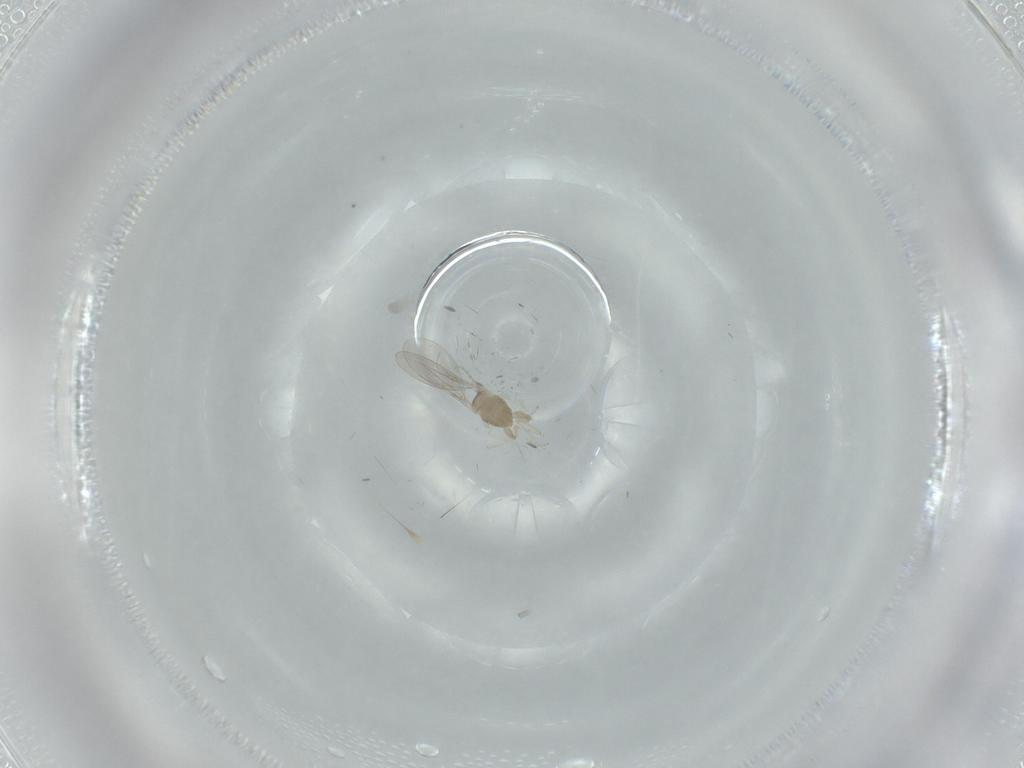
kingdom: Animalia
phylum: Arthropoda
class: Insecta
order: Diptera
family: Cecidomyiidae
